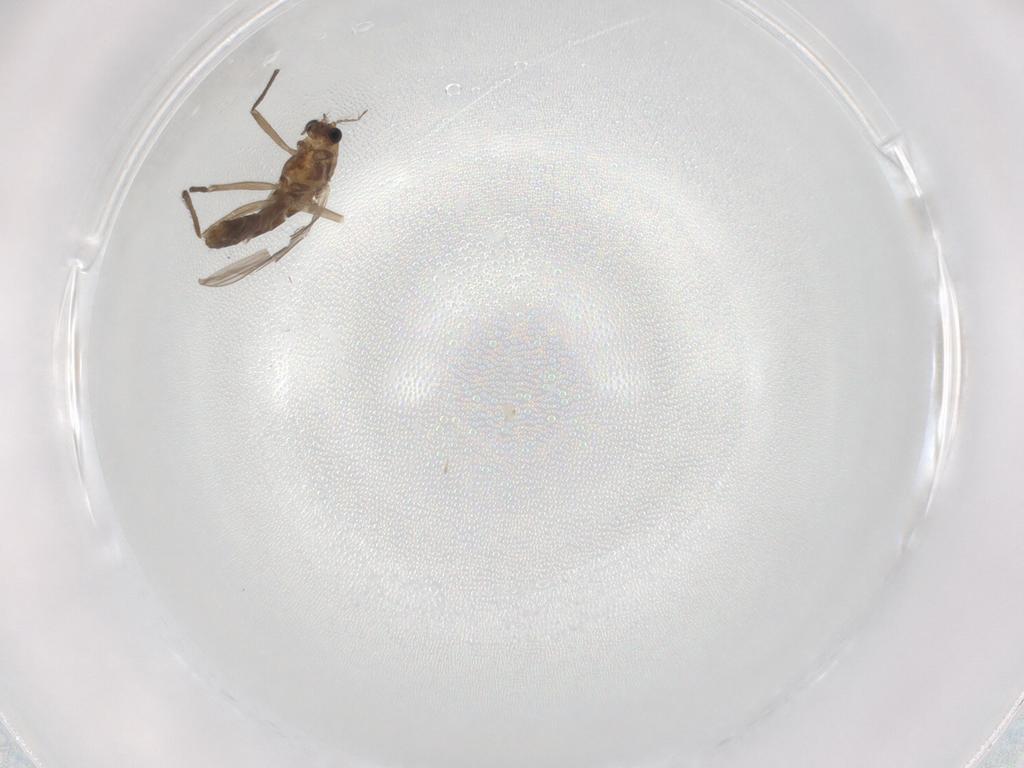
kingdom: Animalia
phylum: Arthropoda
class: Insecta
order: Diptera
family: Chironomidae
